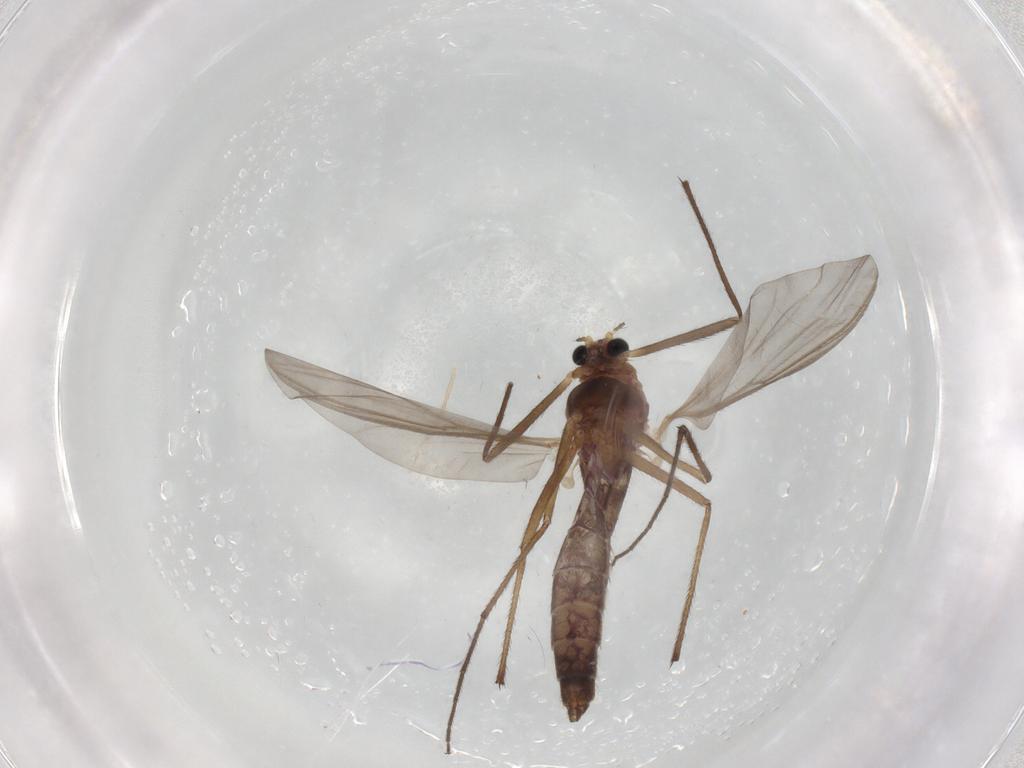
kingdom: Animalia
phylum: Arthropoda
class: Insecta
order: Diptera
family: Chironomidae
